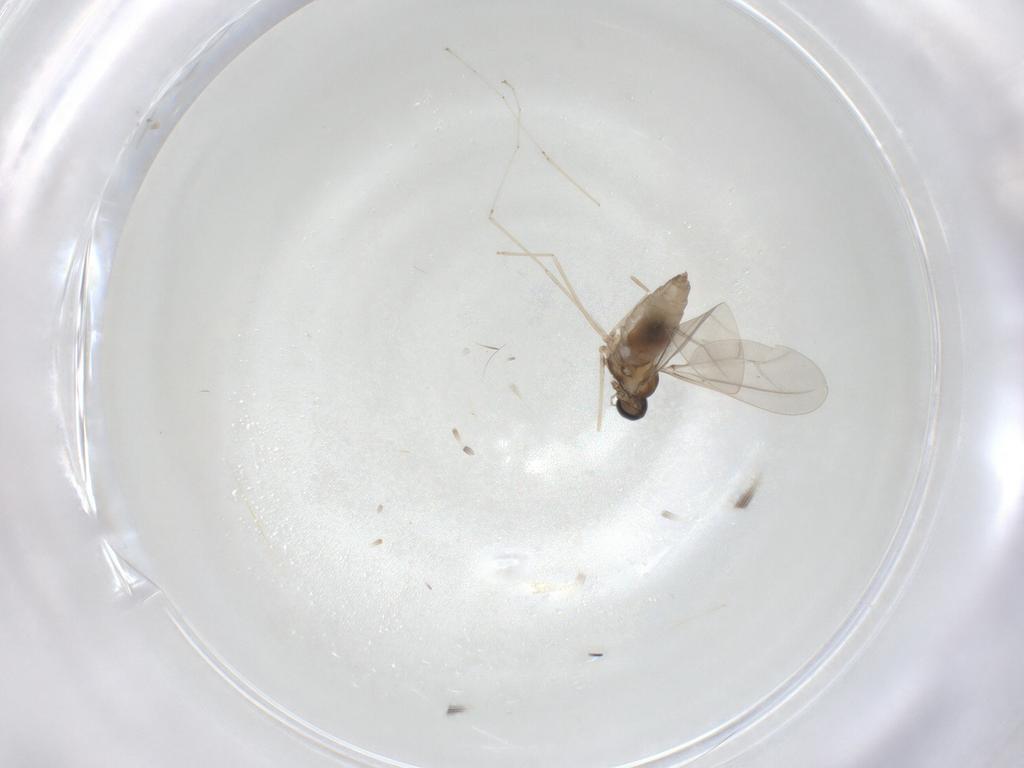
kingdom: Animalia
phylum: Arthropoda
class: Insecta
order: Diptera
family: Cecidomyiidae
